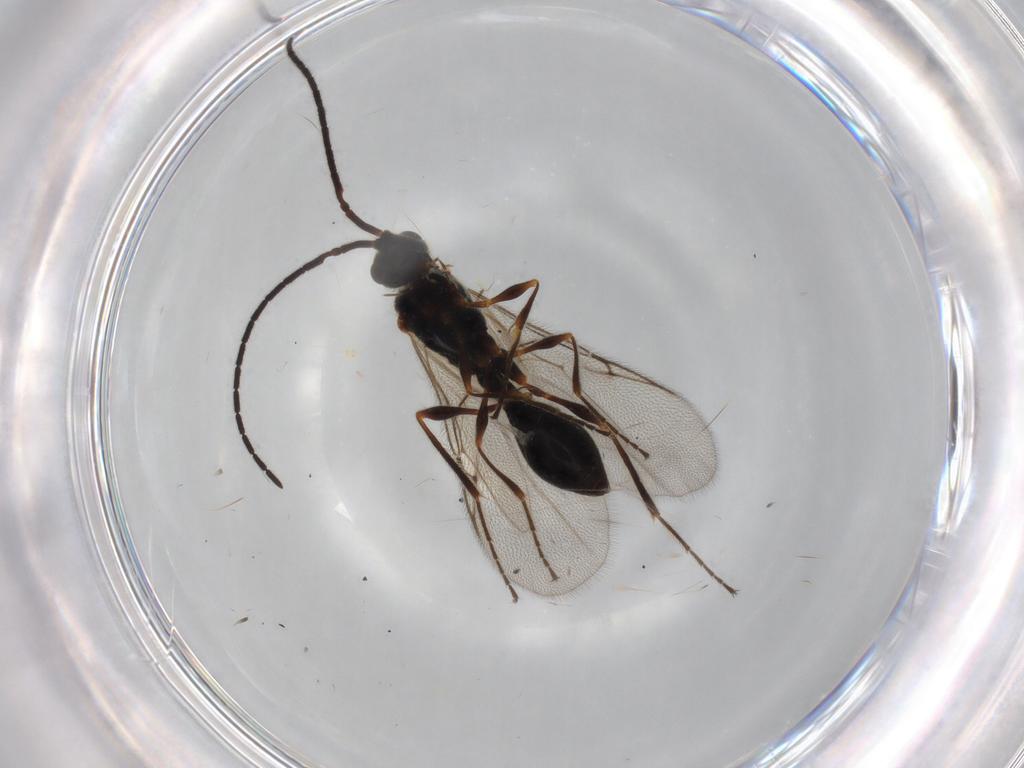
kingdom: Animalia
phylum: Arthropoda
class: Insecta
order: Hymenoptera
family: Diapriidae
